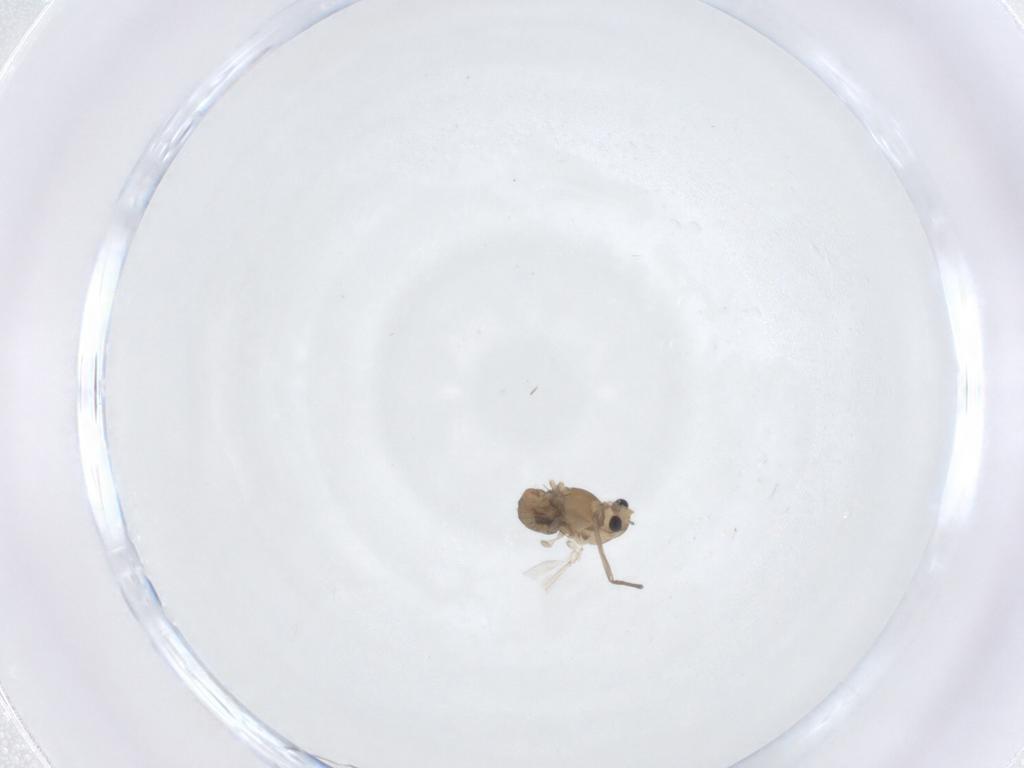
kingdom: Animalia
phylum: Arthropoda
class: Insecta
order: Diptera
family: Chironomidae
